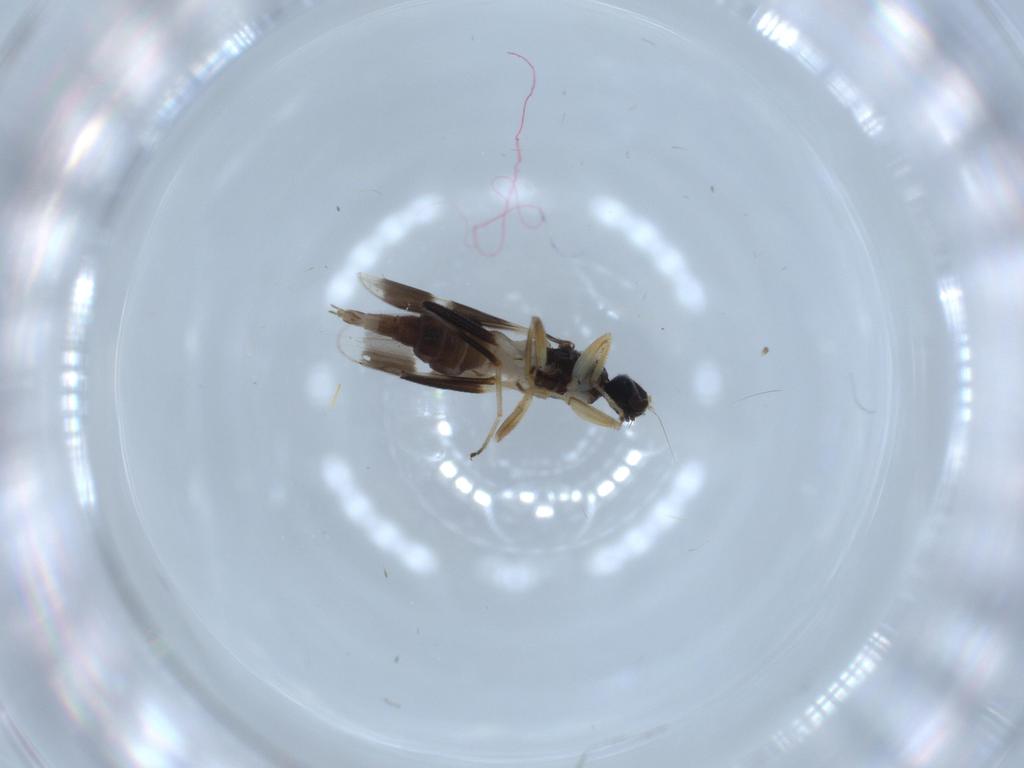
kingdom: Animalia
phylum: Arthropoda
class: Insecta
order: Diptera
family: Hybotidae
